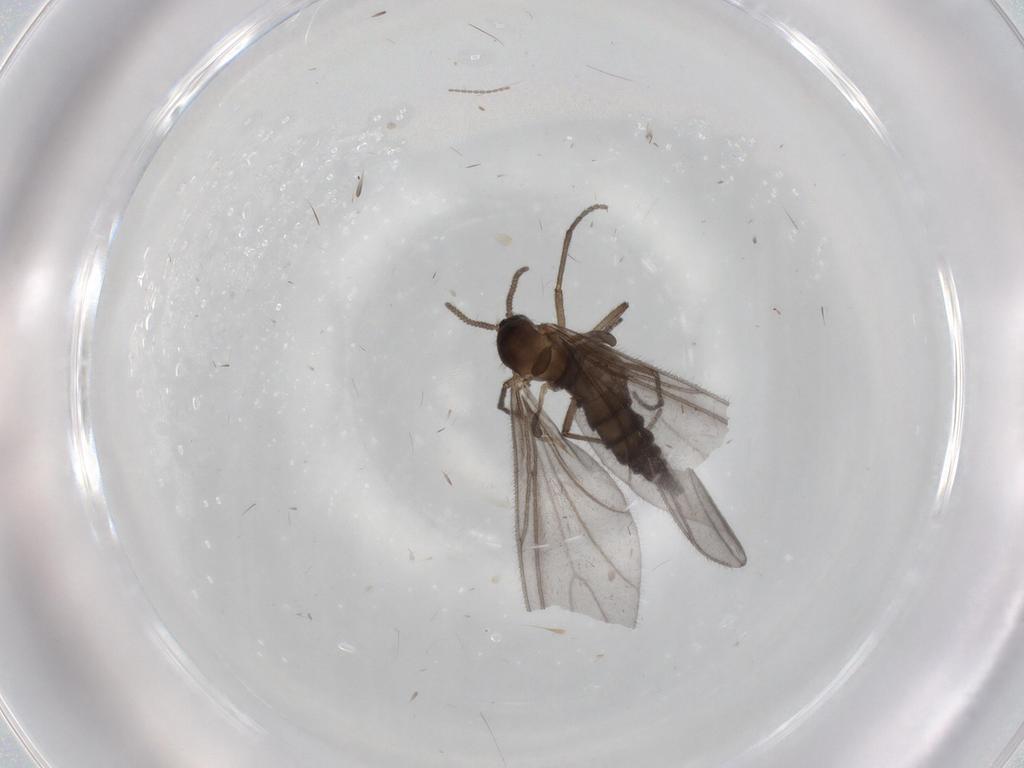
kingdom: Animalia
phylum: Arthropoda
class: Insecta
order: Diptera
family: Sciaridae
